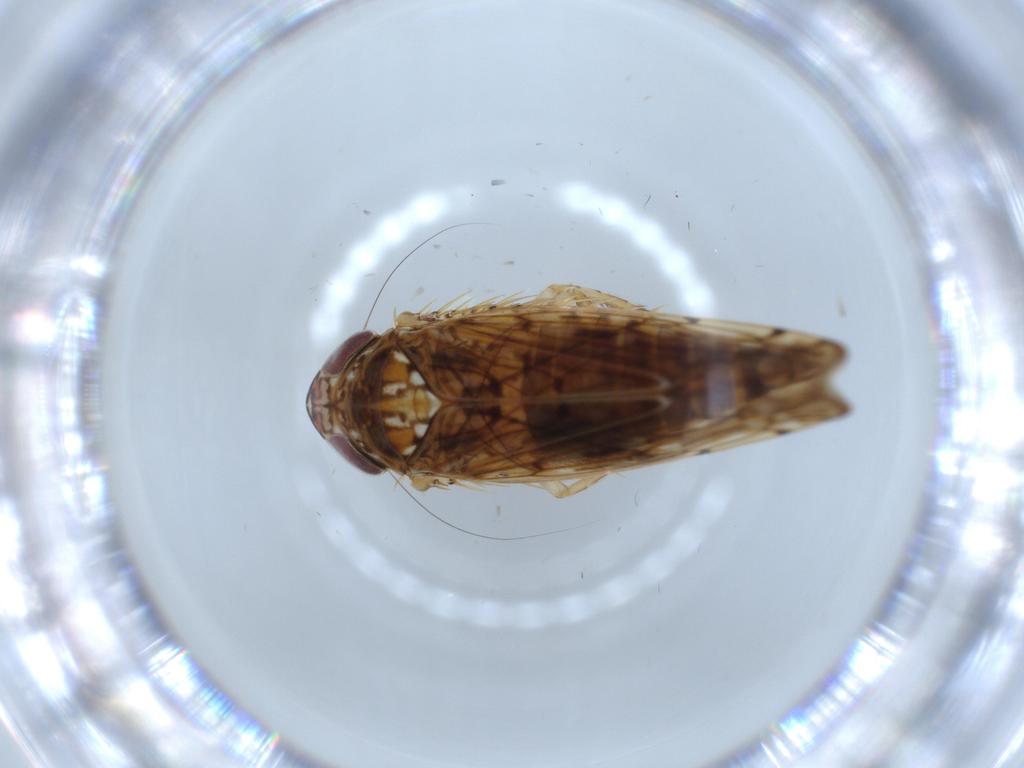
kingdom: Animalia
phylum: Arthropoda
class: Insecta
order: Hemiptera
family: Cicadellidae
